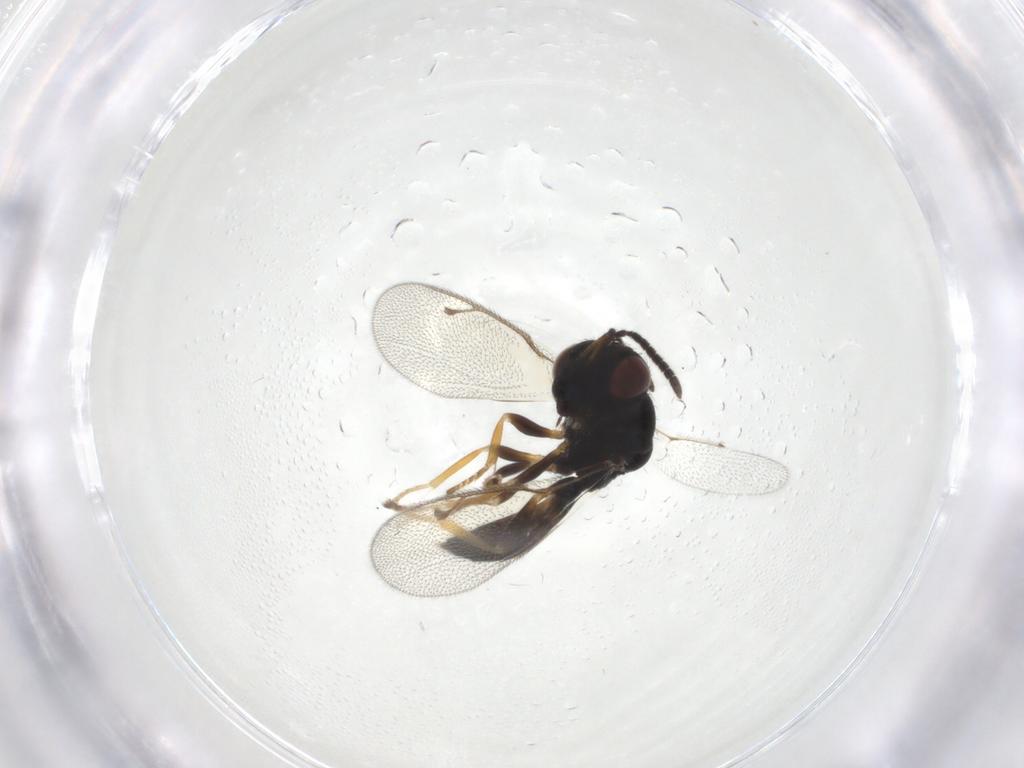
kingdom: Animalia
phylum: Arthropoda
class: Insecta
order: Hymenoptera
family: Pteromalidae
